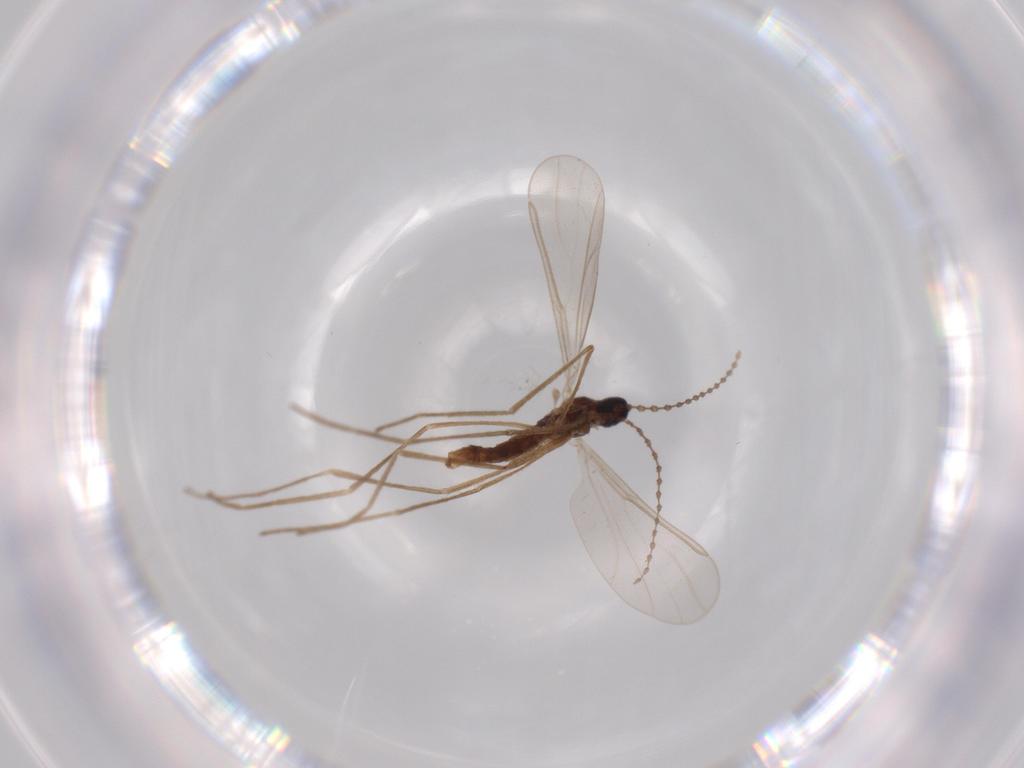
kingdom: Animalia
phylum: Arthropoda
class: Insecta
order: Diptera
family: Cecidomyiidae
